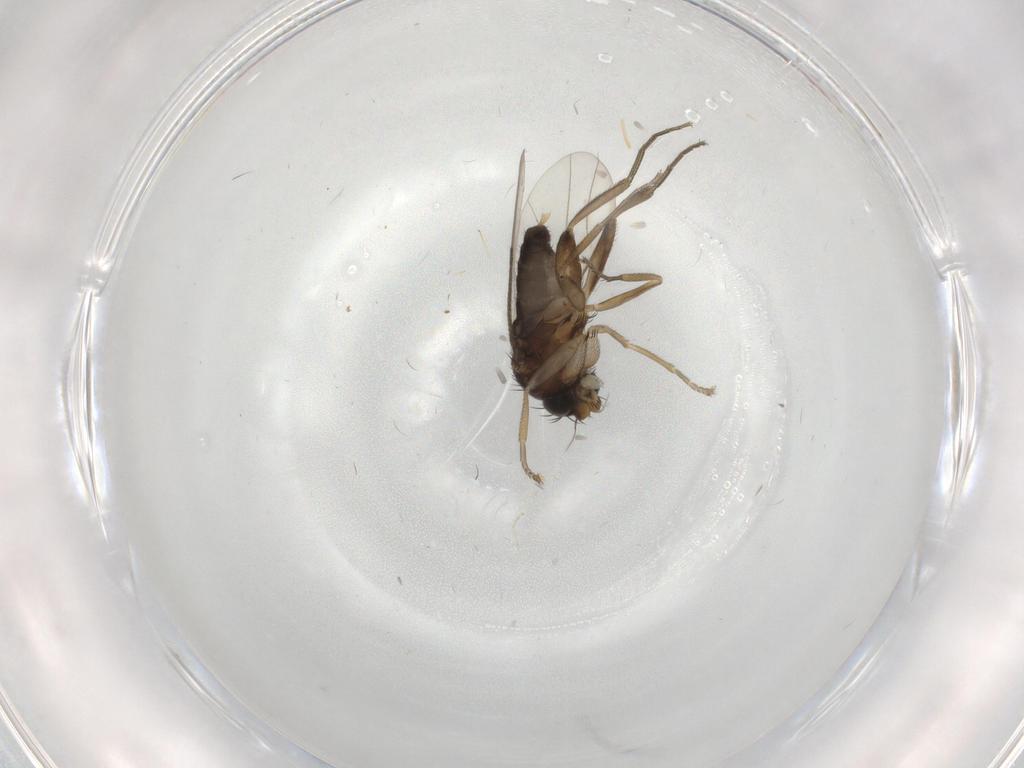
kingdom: Animalia
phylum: Arthropoda
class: Insecta
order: Diptera
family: Phoridae
